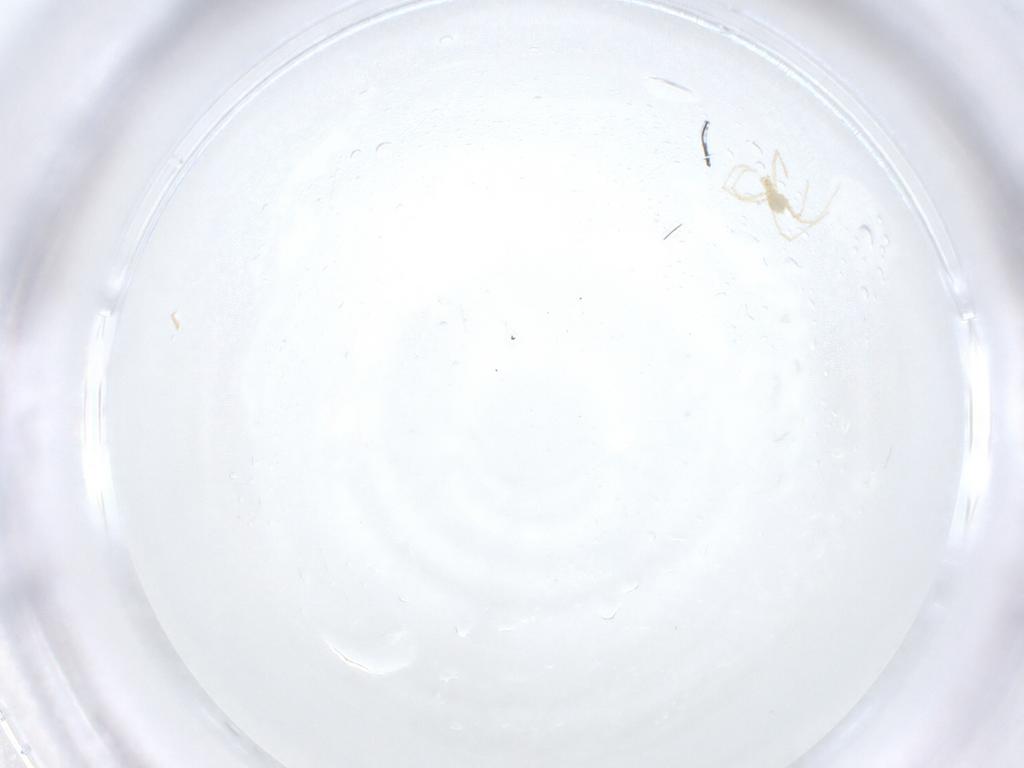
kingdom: Animalia
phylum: Arthropoda
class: Arachnida
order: Trombidiformes
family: Erythraeidae
